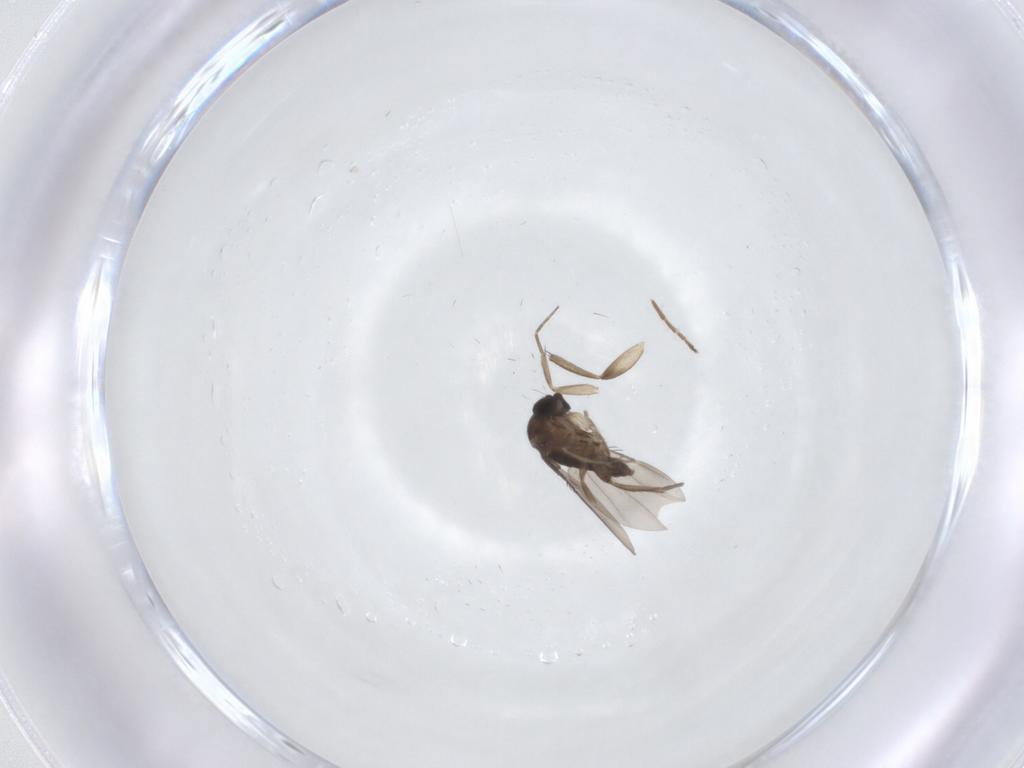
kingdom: Animalia
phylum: Arthropoda
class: Insecta
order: Diptera
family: Phoridae
